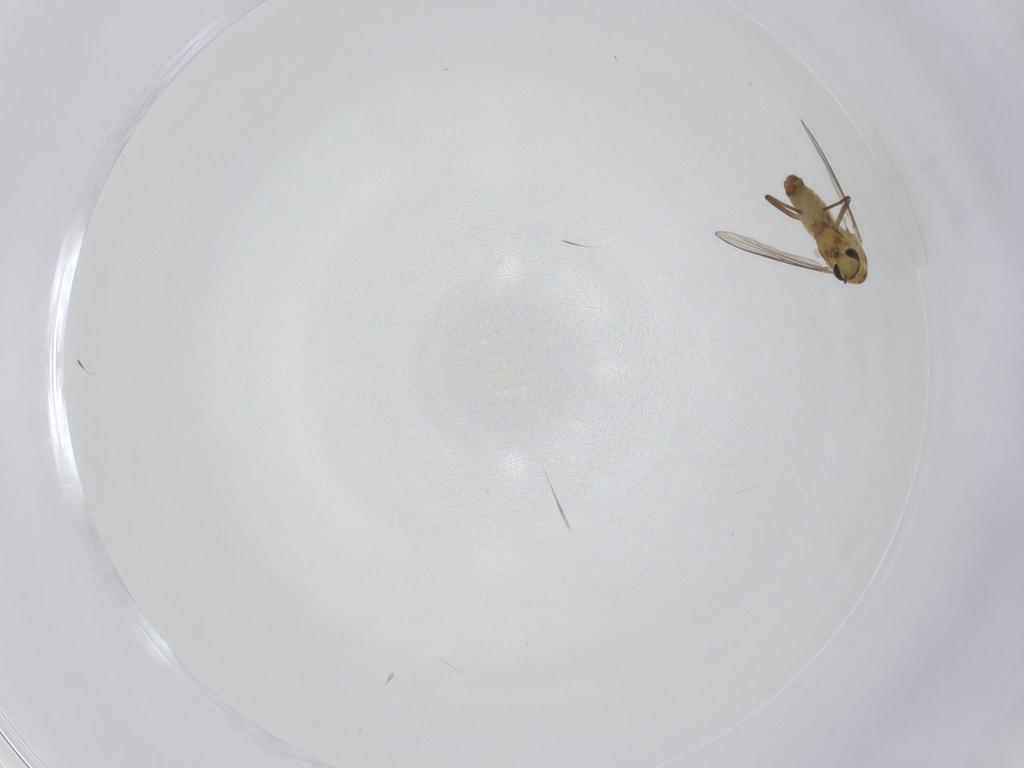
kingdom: Animalia
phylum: Arthropoda
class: Insecta
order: Diptera
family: Chironomidae
